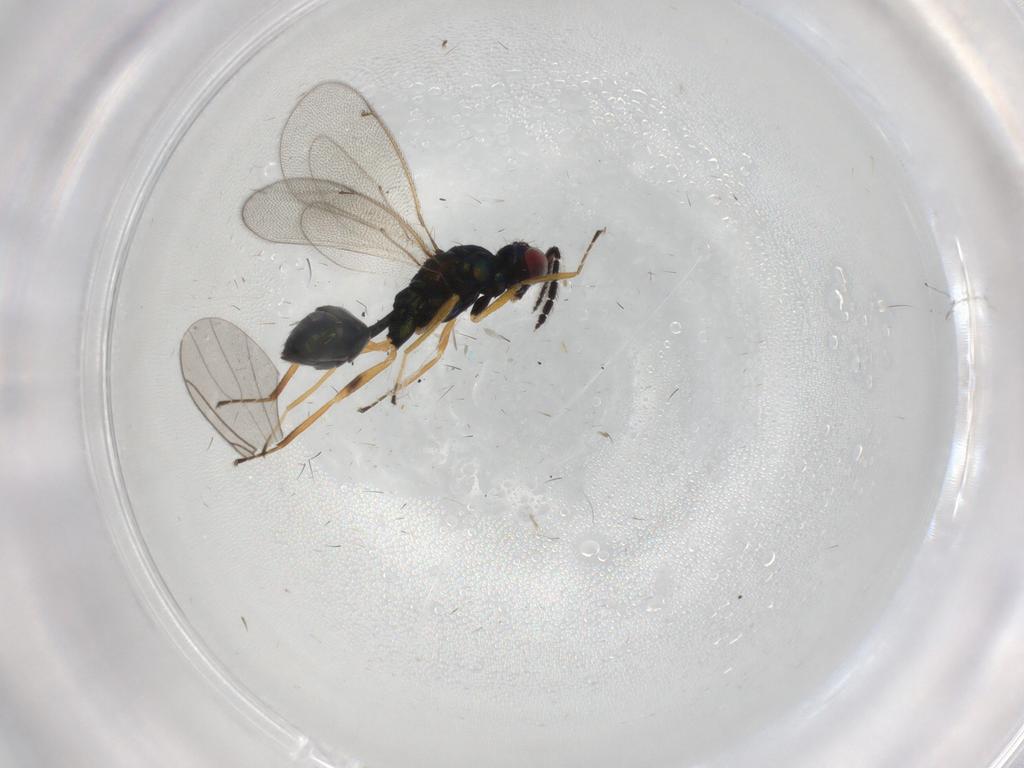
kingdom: Animalia
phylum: Arthropoda
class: Insecta
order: Hymenoptera
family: Eulophidae
